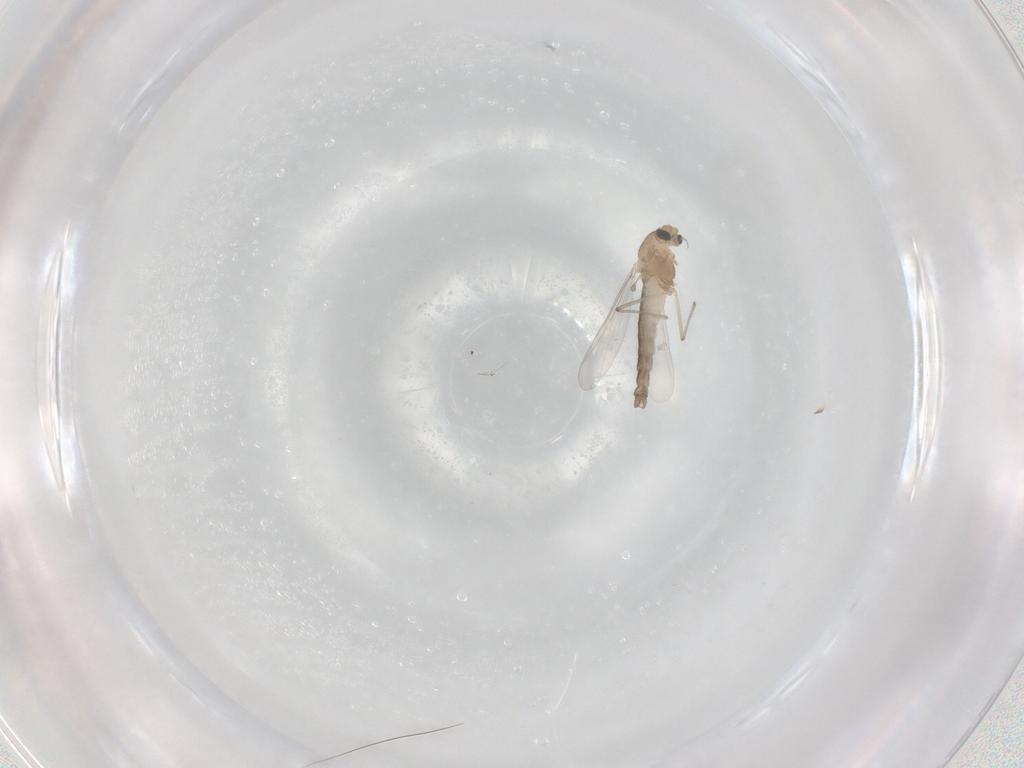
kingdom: Animalia
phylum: Arthropoda
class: Insecta
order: Diptera
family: Chironomidae
